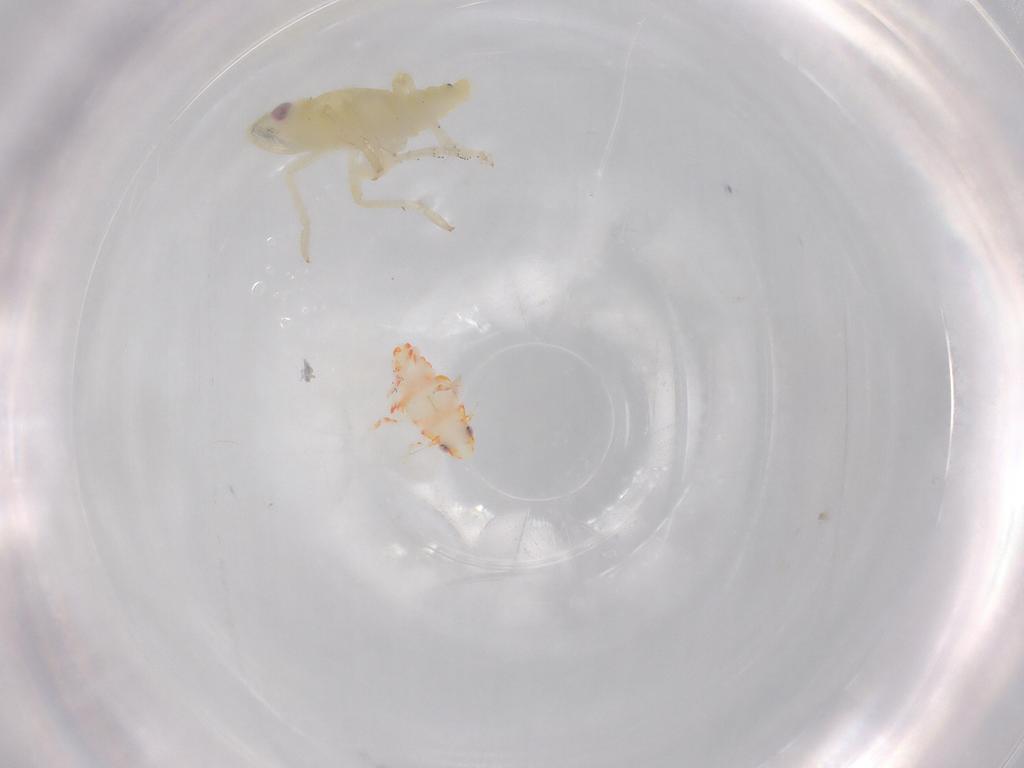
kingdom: Animalia
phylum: Arthropoda
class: Insecta
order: Hemiptera
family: Tropiduchidae
